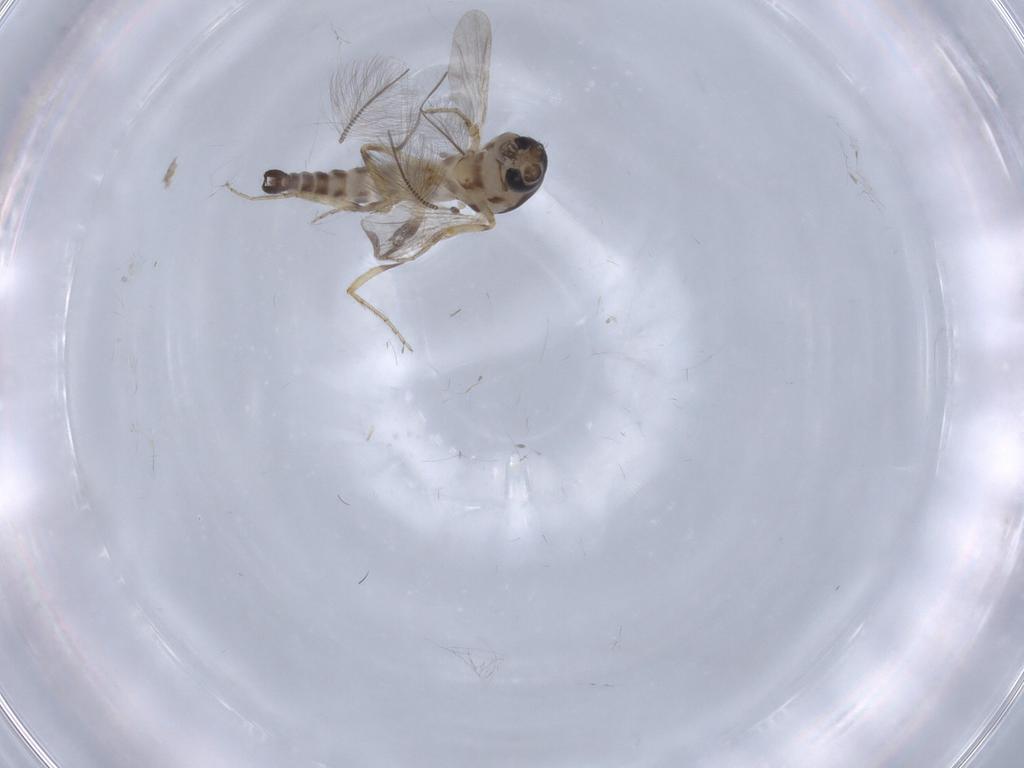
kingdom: Animalia
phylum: Arthropoda
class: Insecta
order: Diptera
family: Ceratopogonidae
